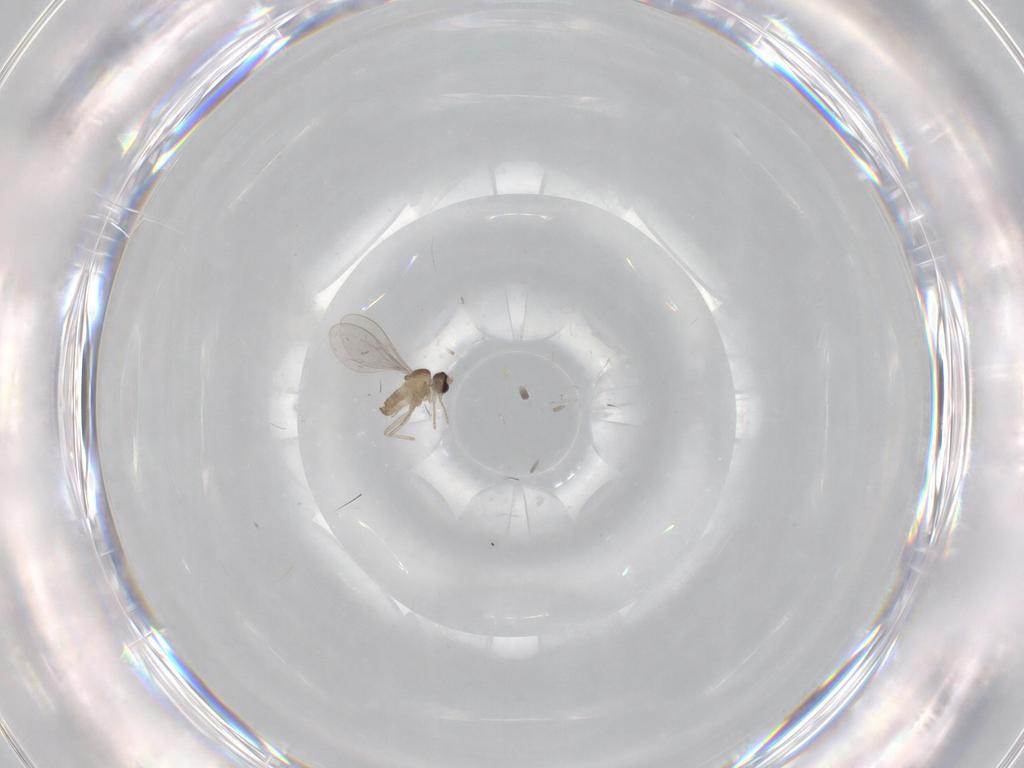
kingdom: Animalia
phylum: Arthropoda
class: Insecta
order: Diptera
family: Cecidomyiidae
